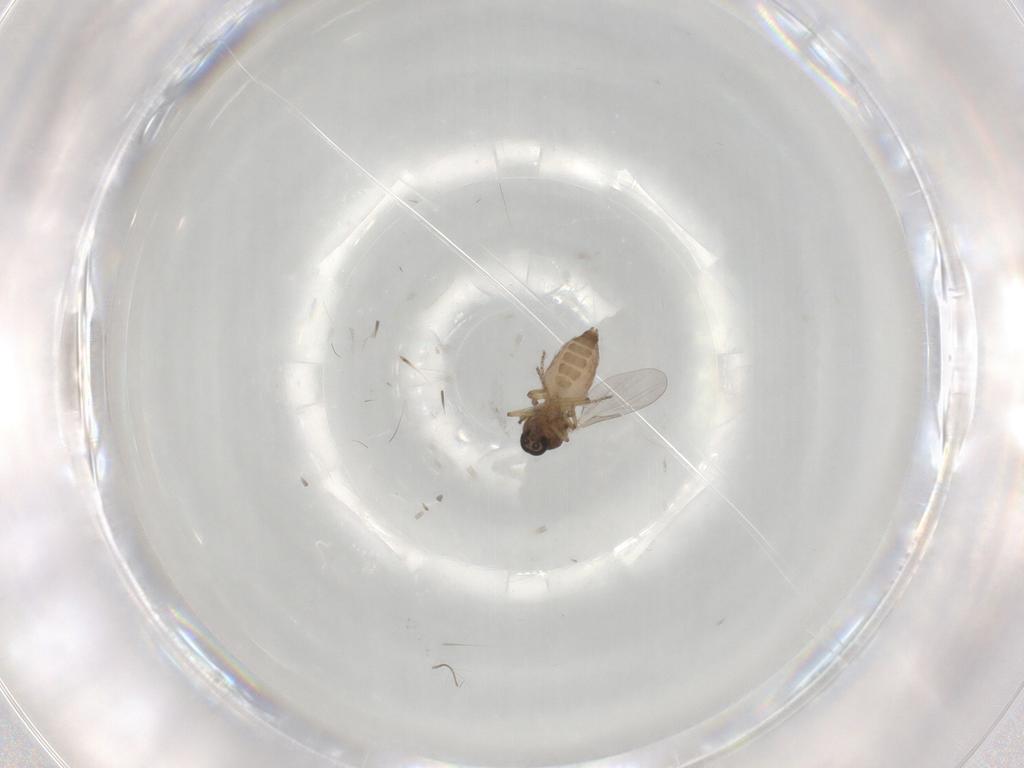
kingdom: Animalia
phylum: Arthropoda
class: Insecta
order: Diptera
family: Ceratopogonidae
